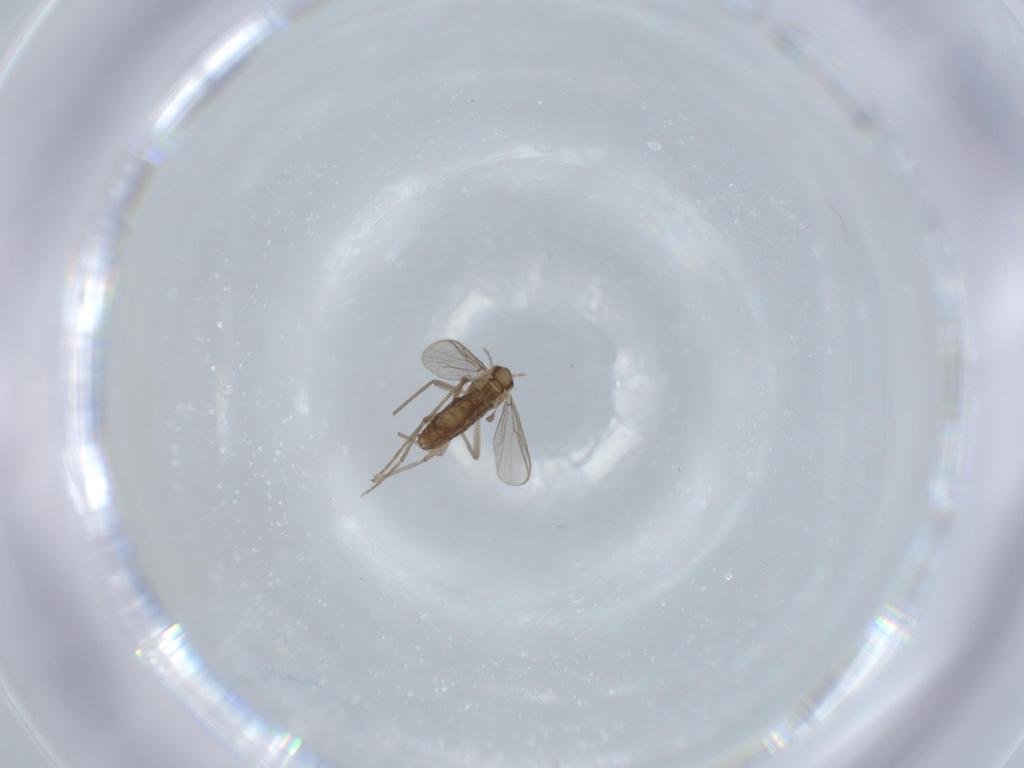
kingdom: Animalia
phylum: Arthropoda
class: Insecta
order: Diptera
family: Chironomidae
